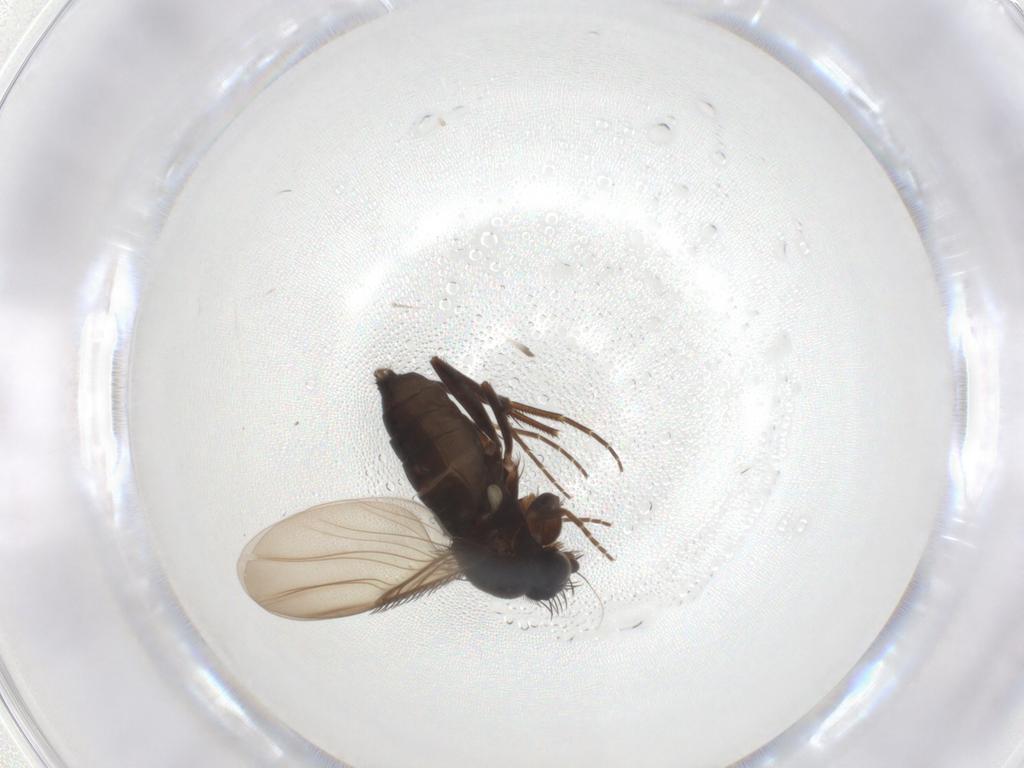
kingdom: Animalia
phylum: Arthropoda
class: Insecta
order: Diptera
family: Phoridae
